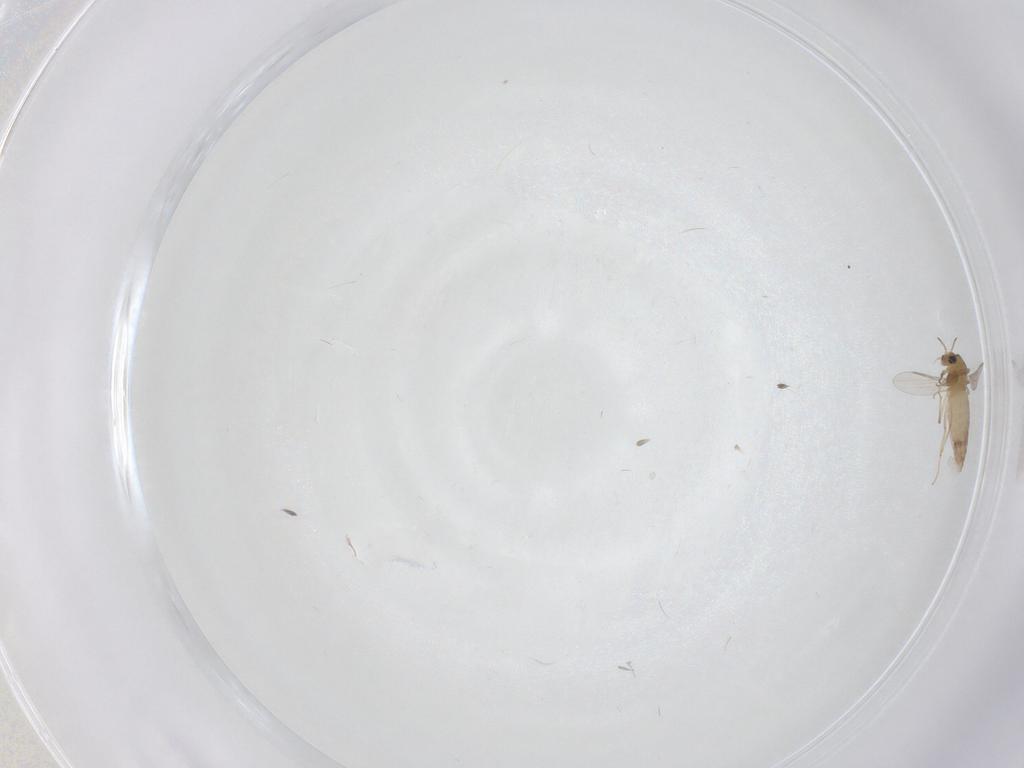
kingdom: Animalia
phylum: Arthropoda
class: Insecta
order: Diptera
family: Chironomidae
